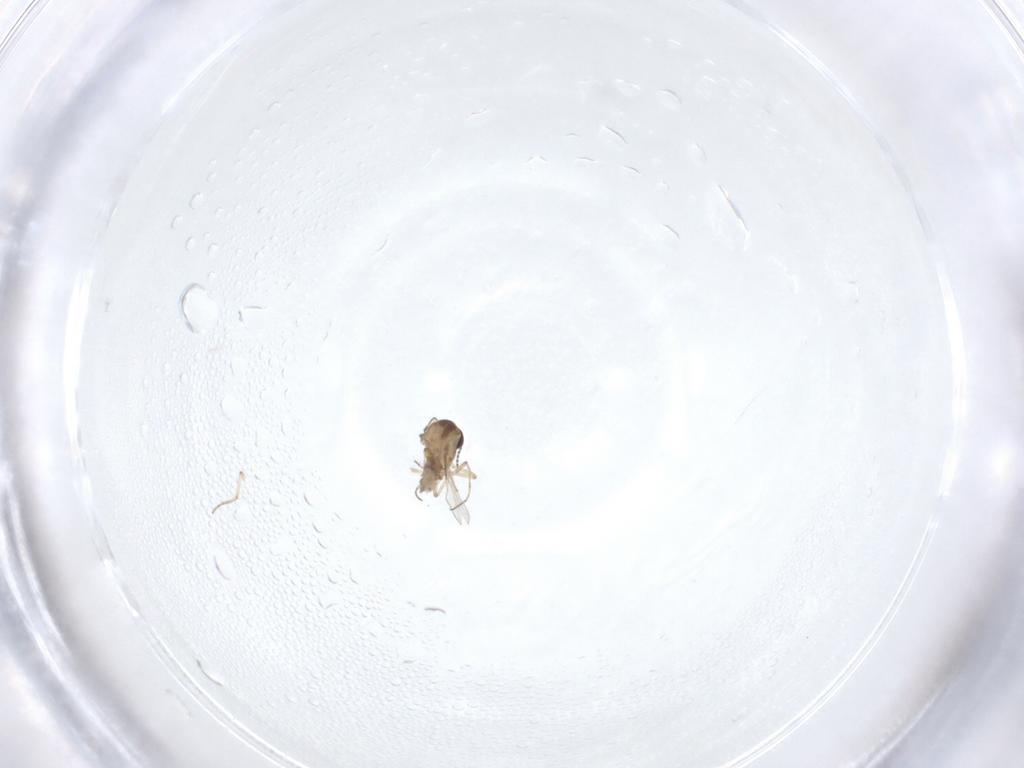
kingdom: Animalia
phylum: Arthropoda
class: Insecta
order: Diptera
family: Ceratopogonidae
